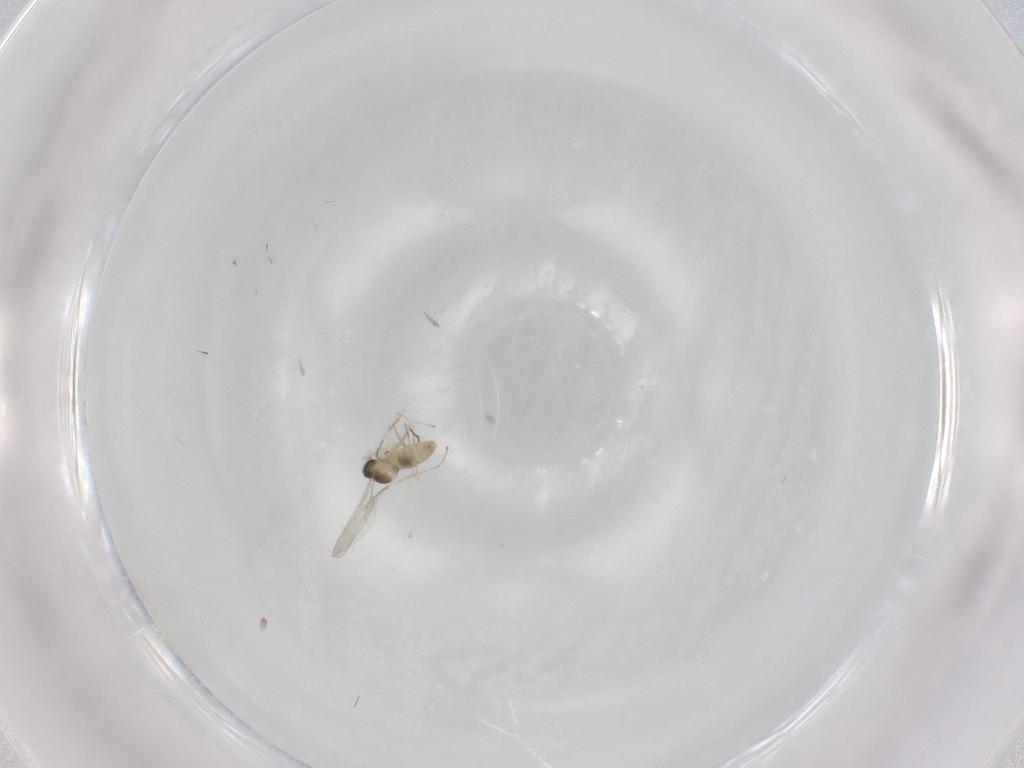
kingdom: Animalia
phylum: Arthropoda
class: Insecta
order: Diptera
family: Cecidomyiidae
